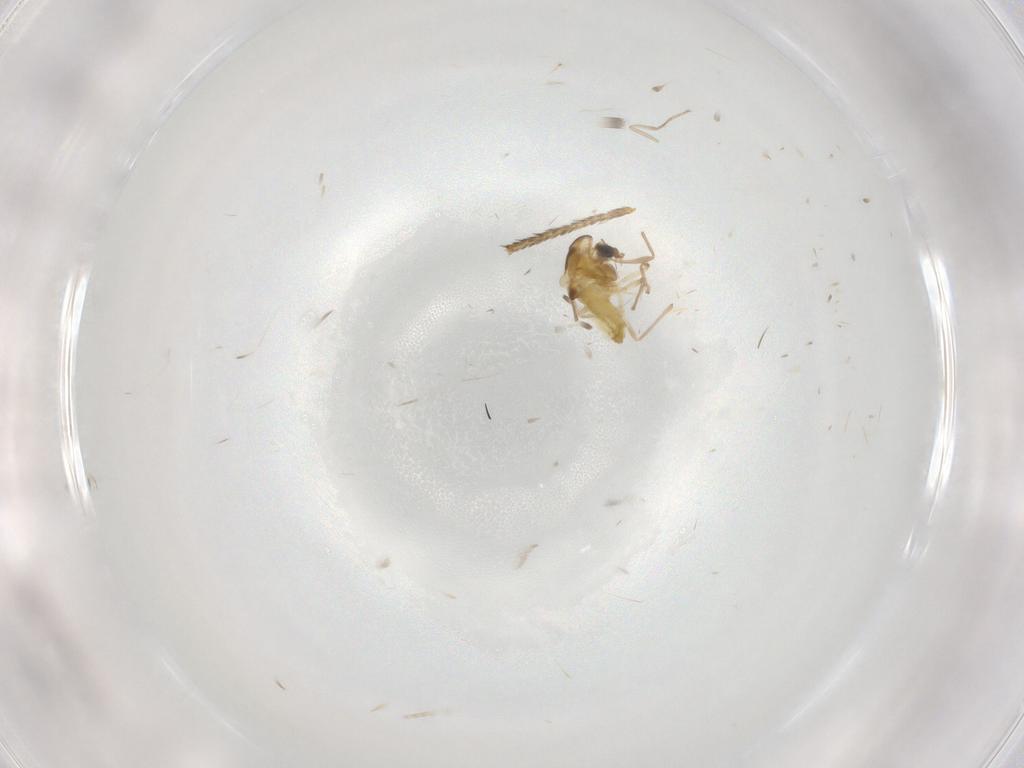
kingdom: Animalia
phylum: Arthropoda
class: Insecta
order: Diptera
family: Chironomidae
